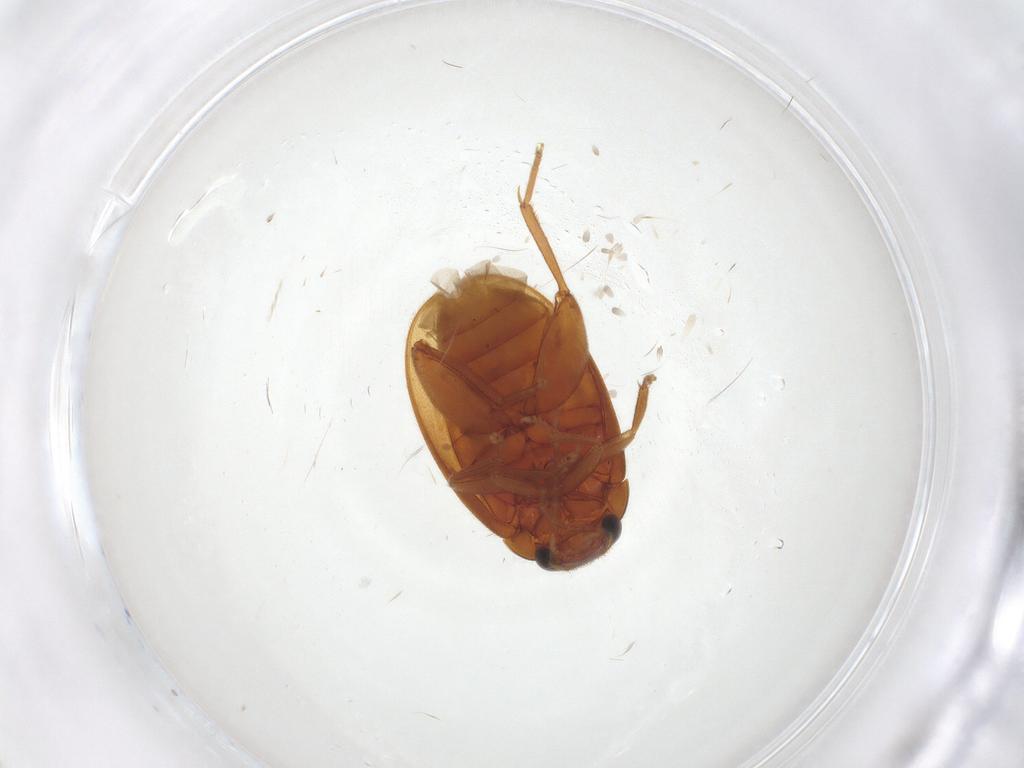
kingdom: Animalia
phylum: Arthropoda
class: Insecta
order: Coleoptera
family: Scirtidae
